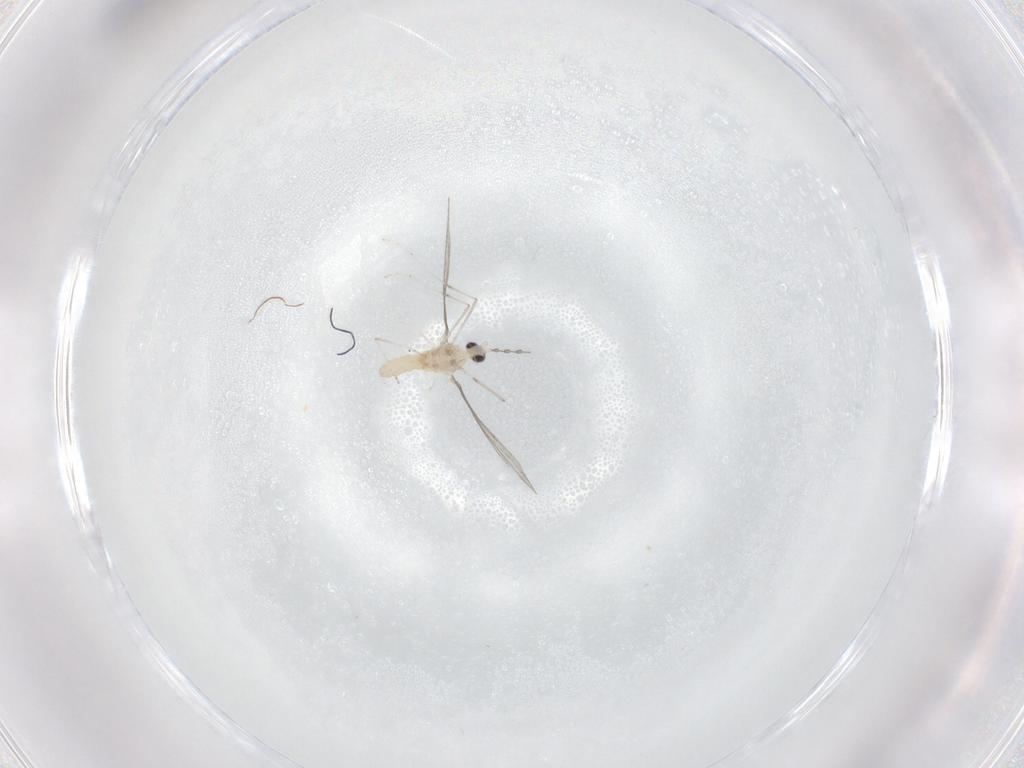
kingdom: Animalia
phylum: Arthropoda
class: Insecta
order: Diptera
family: Cecidomyiidae
